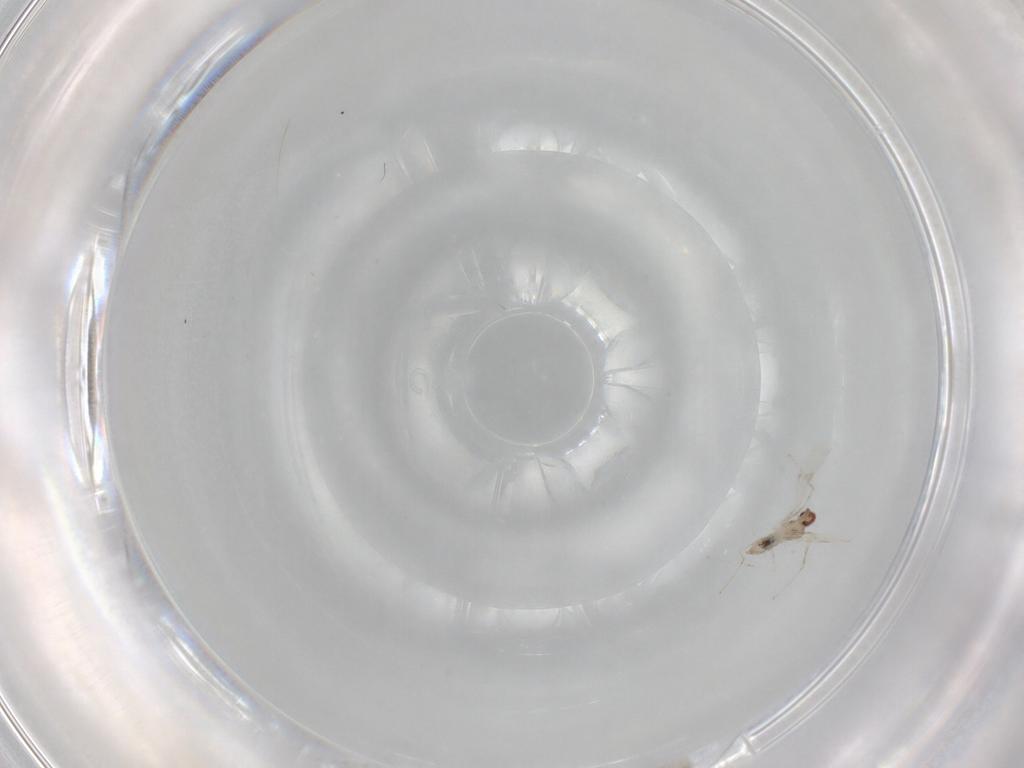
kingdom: Animalia
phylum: Arthropoda
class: Insecta
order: Diptera
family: Cecidomyiidae
